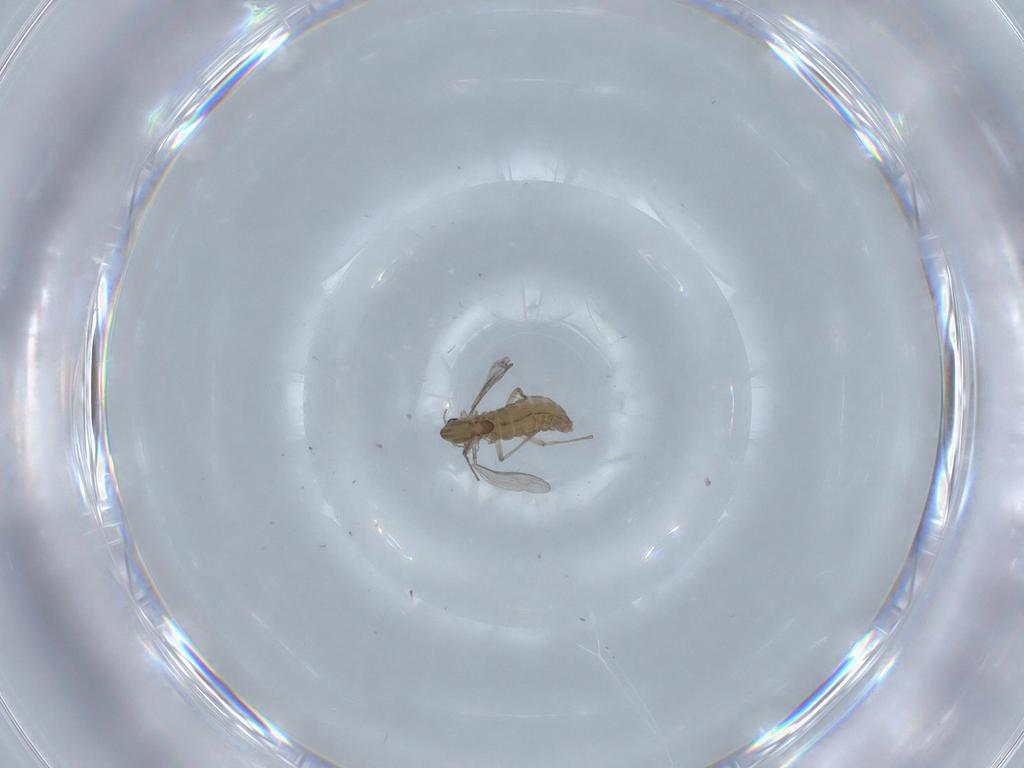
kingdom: Animalia
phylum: Arthropoda
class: Insecta
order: Diptera
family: Chironomidae
